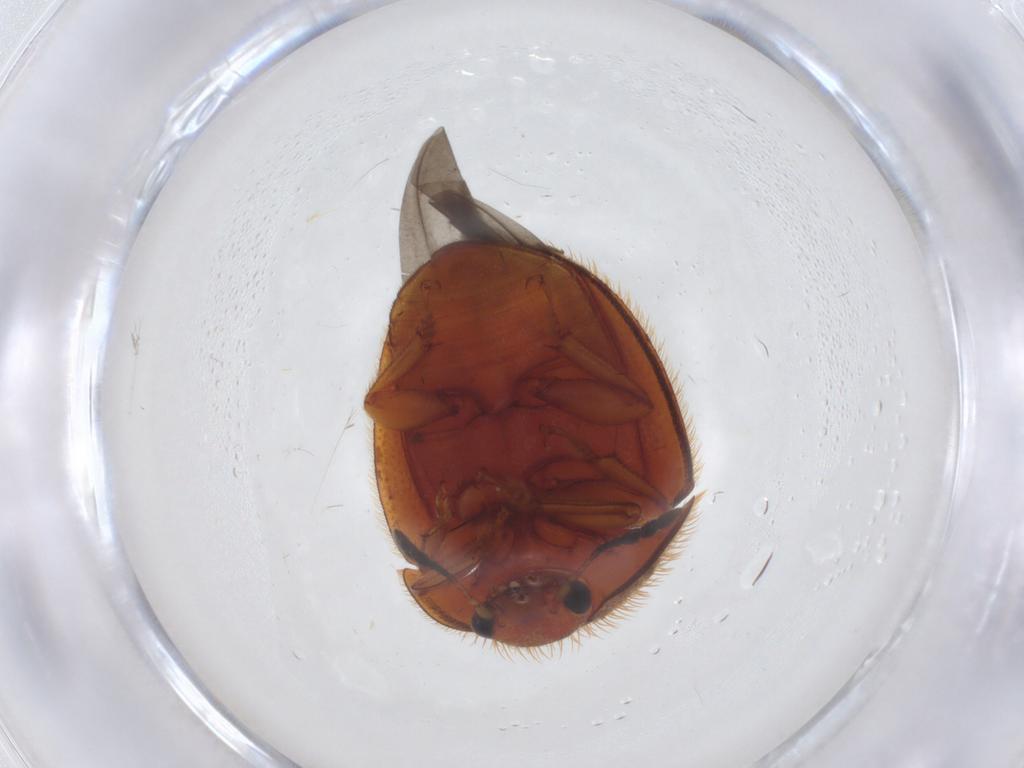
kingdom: Animalia
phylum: Arthropoda
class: Insecta
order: Coleoptera
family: Nitidulidae
